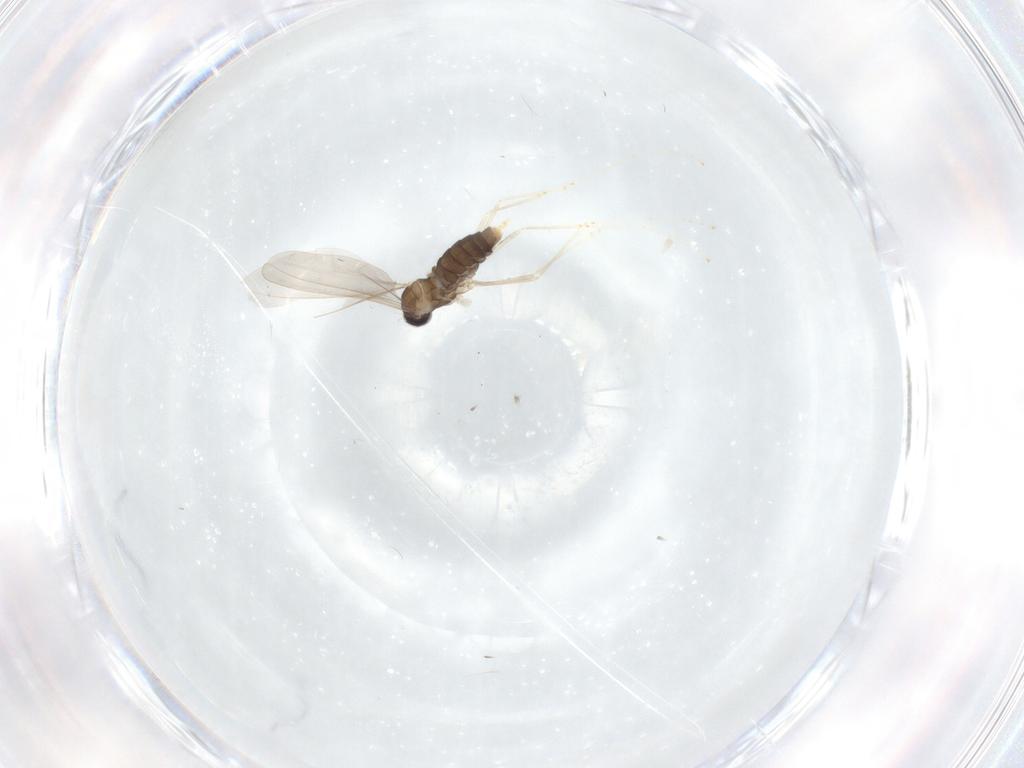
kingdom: Animalia
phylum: Arthropoda
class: Insecta
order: Diptera
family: Cecidomyiidae
